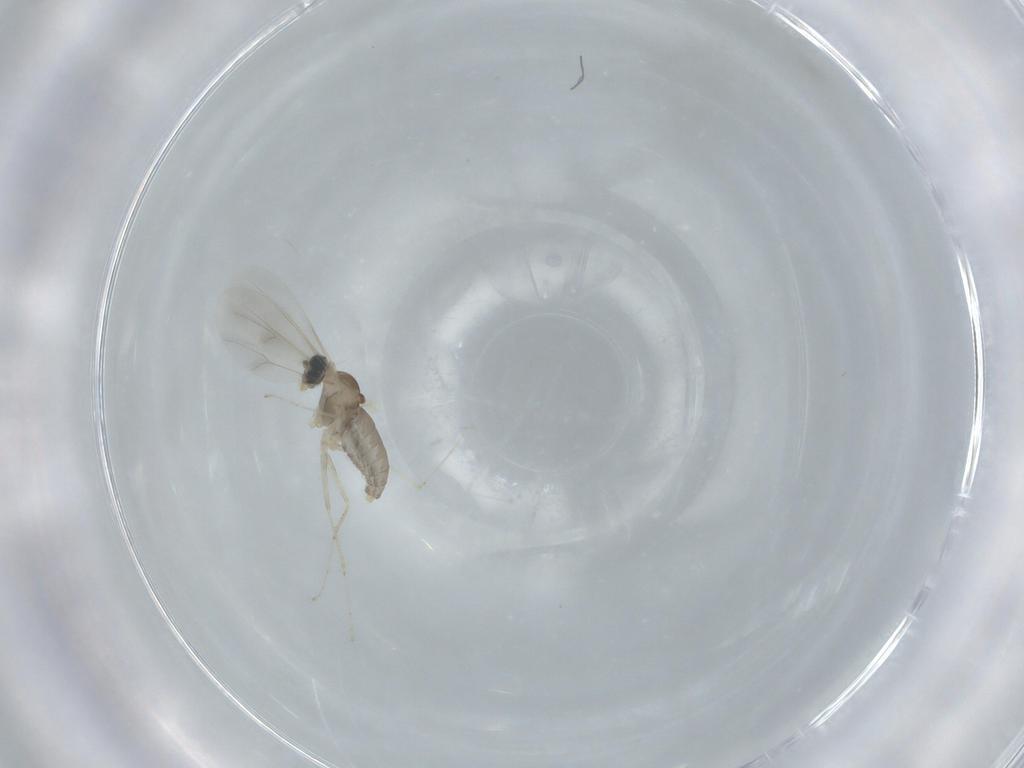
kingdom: Animalia
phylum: Arthropoda
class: Insecta
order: Diptera
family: Cecidomyiidae
